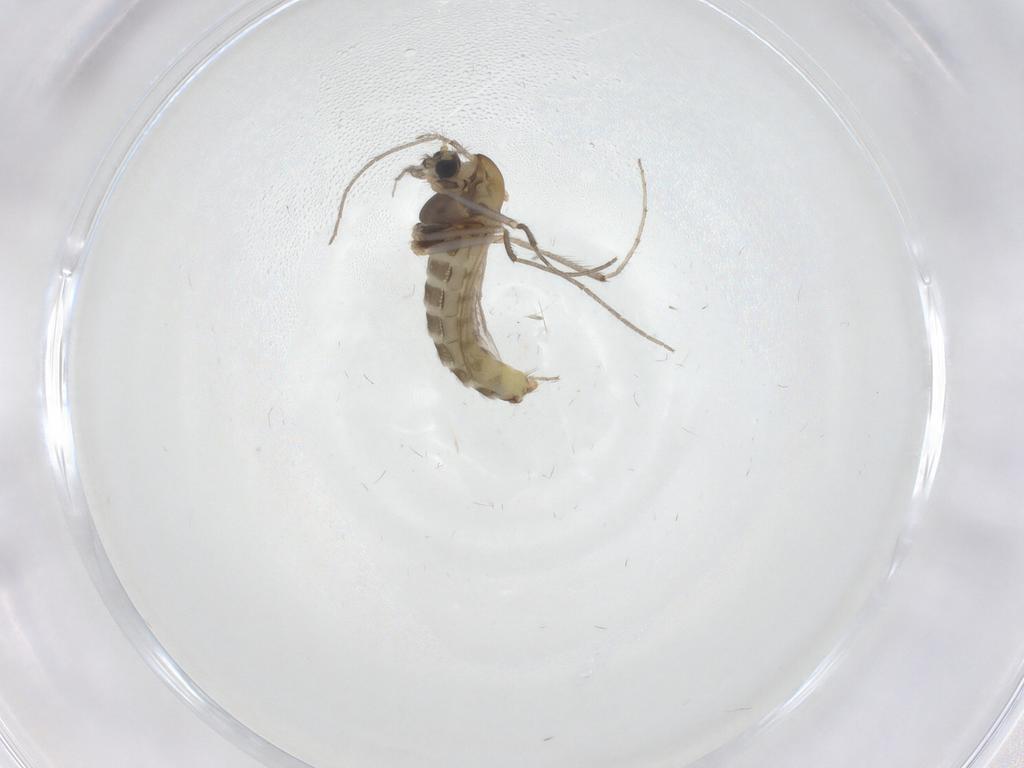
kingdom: Animalia
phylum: Arthropoda
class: Insecta
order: Diptera
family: Chironomidae
